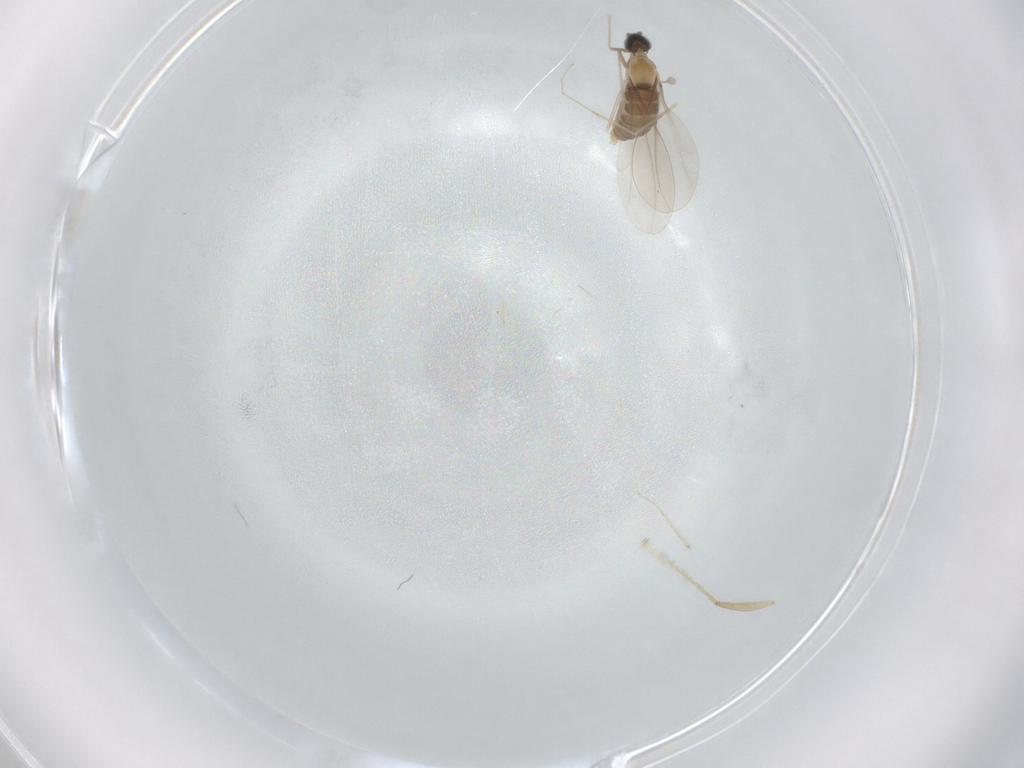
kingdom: Animalia
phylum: Arthropoda
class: Insecta
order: Diptera
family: Cecidomyiidae
